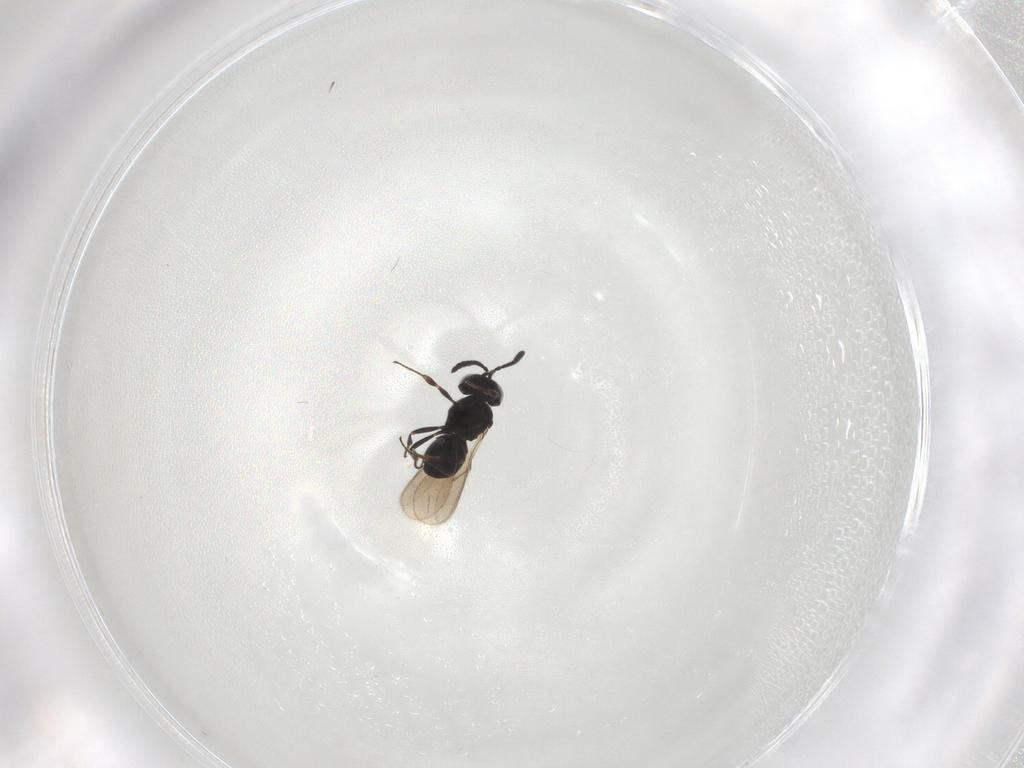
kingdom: Animalia
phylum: Arthropoda
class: Insecta
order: Hymenoptera
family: Scelionidae
